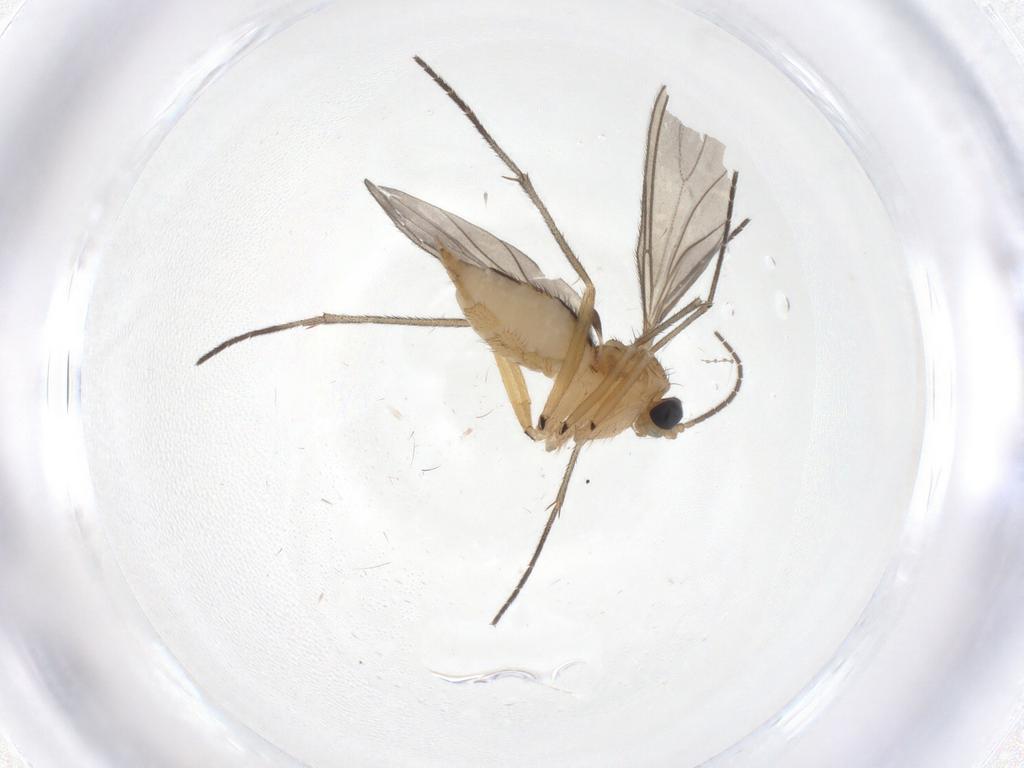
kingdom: Animalia
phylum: Arthropoda
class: Insecta
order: Diptera
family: Sciaridae
